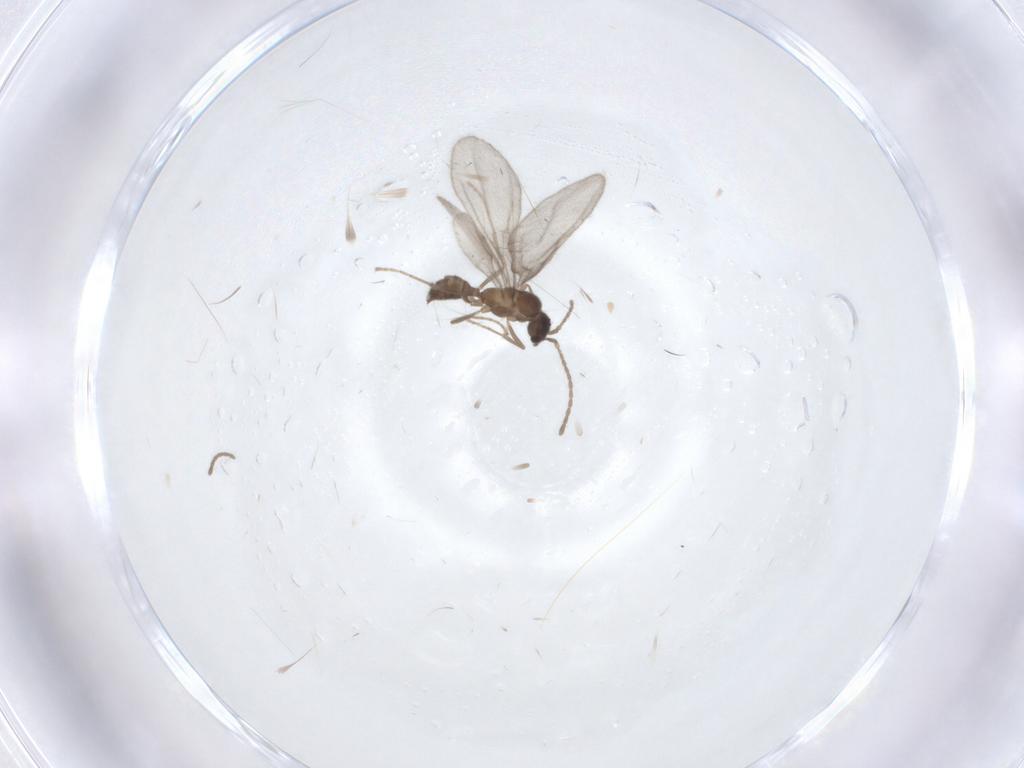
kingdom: Animalia
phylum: Arthropoda
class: Insecta
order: Hymenoptera
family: Formicidae
